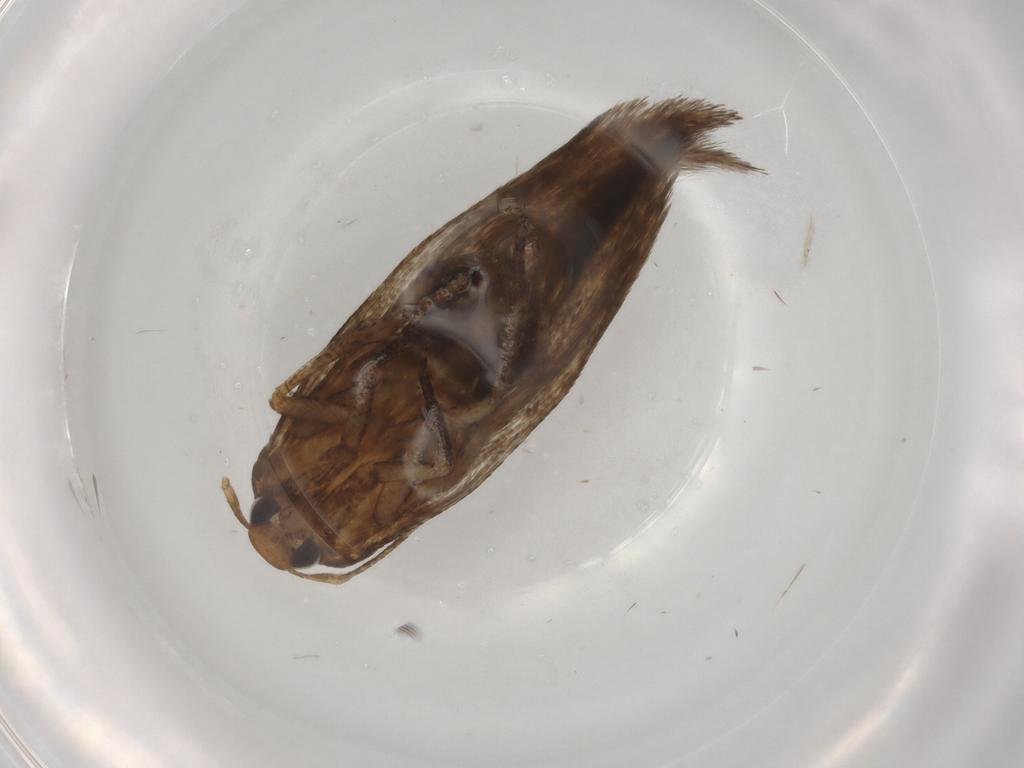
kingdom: Animalia
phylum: Arthropoda
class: Insecta
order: Lepidoptera
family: Cosmopterigidae
